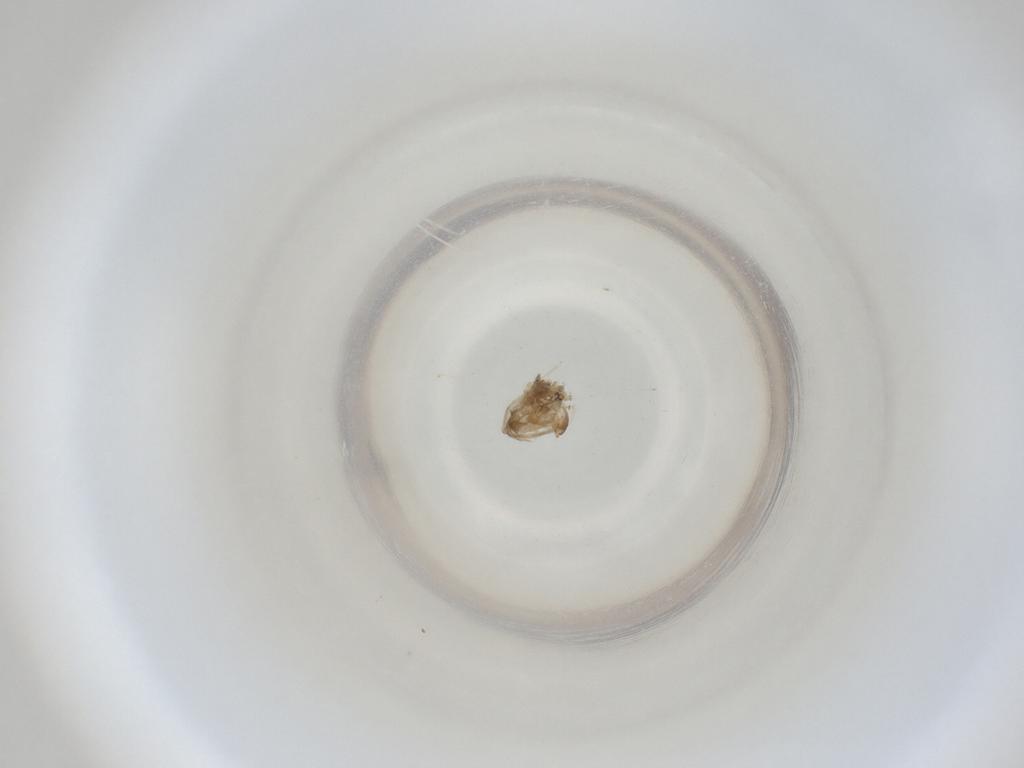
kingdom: Animalia
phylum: Arthropoda
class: Insecta
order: Diptera
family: Cecidomyiidae
